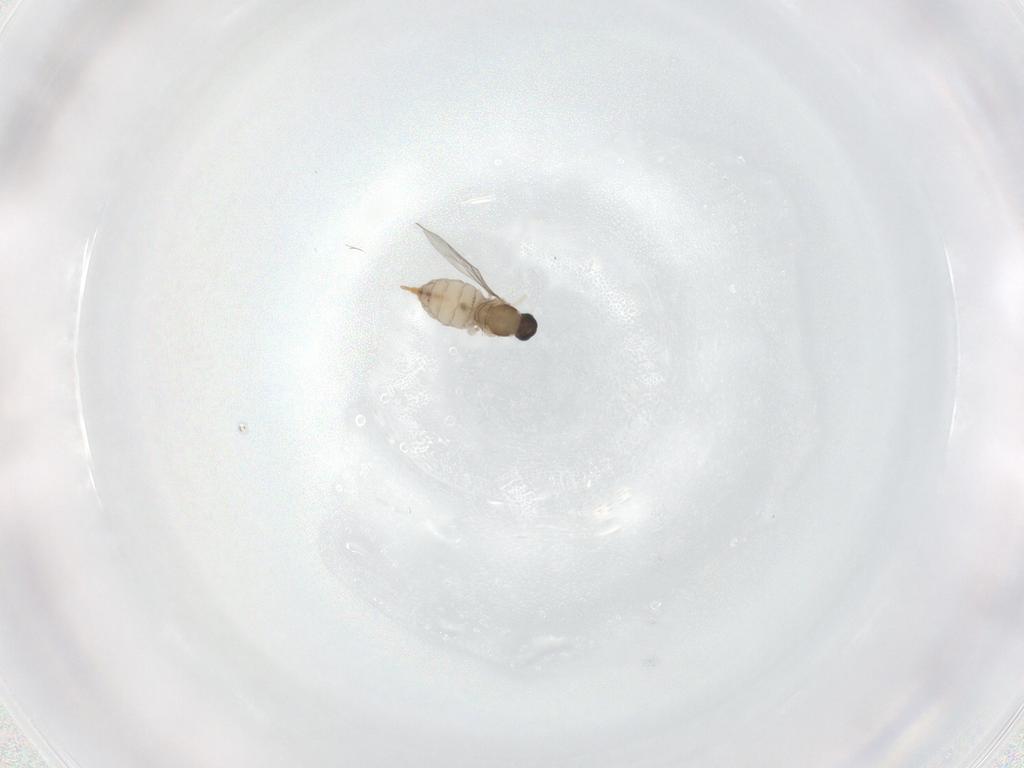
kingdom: Animalia
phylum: Arthropoda
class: Insecta
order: Diptera
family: Cecidomyiidae
